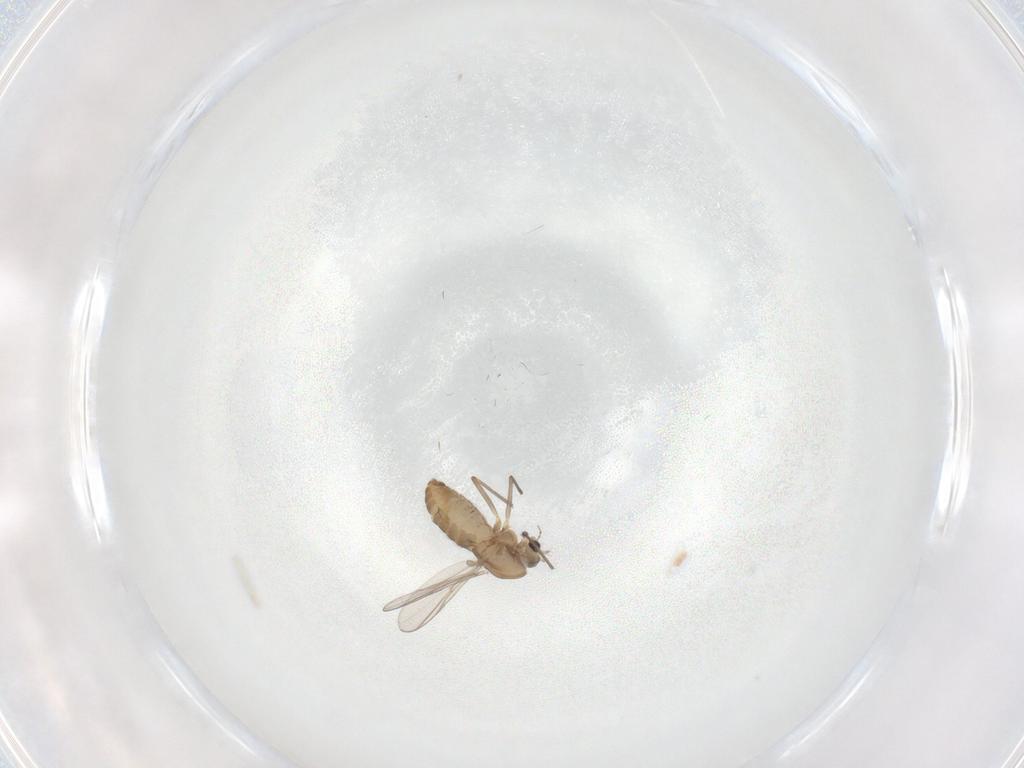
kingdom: Animalia
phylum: Arthropoda
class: Insecta
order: Diptera
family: Chironomidae
